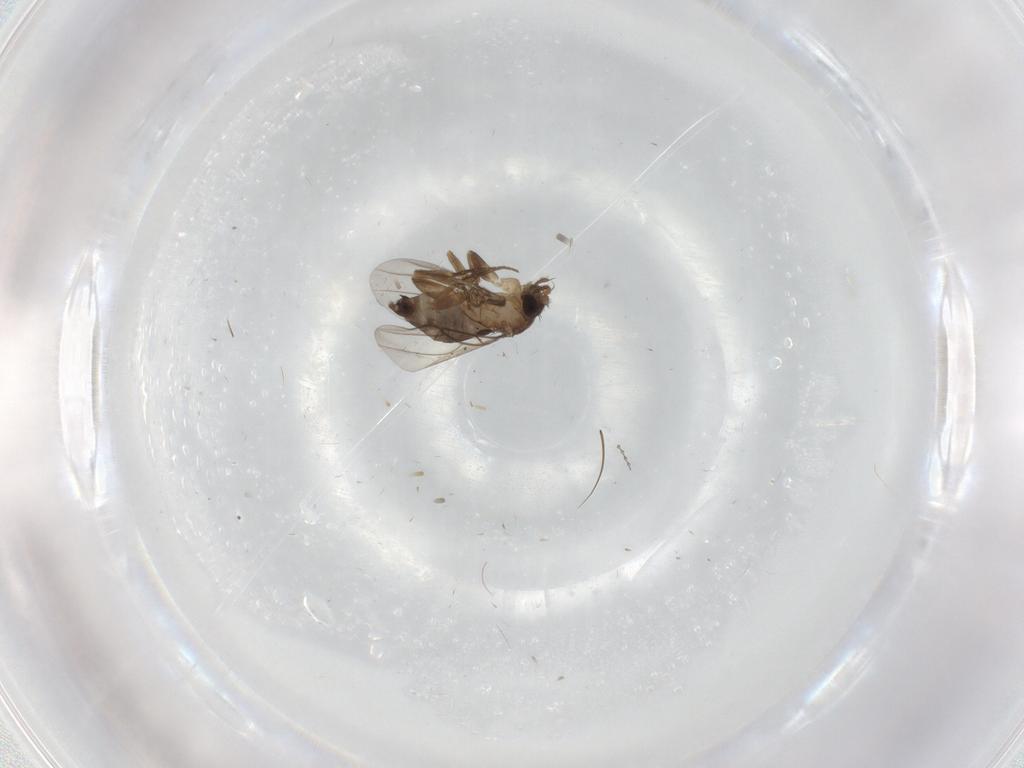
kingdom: Animalia
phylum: Arthropoda
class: Insecta
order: Diptera
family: Phoridae
